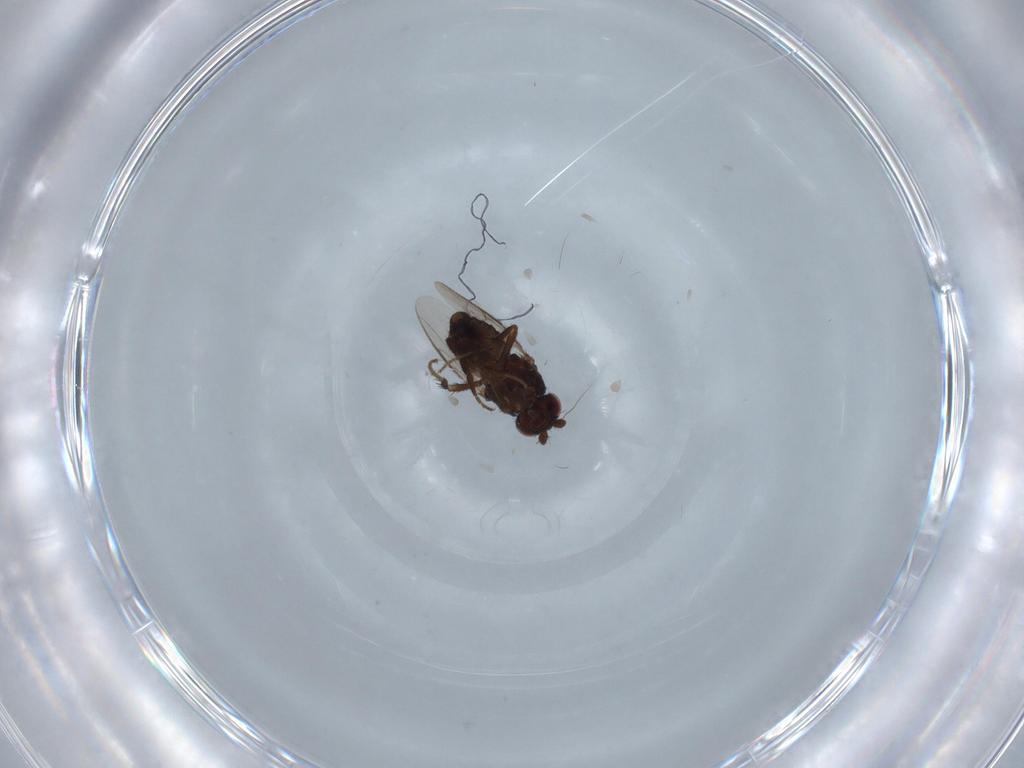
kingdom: Animalia
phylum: Arthropoda
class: Insecta
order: Diptera
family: Sphaeroceridae
